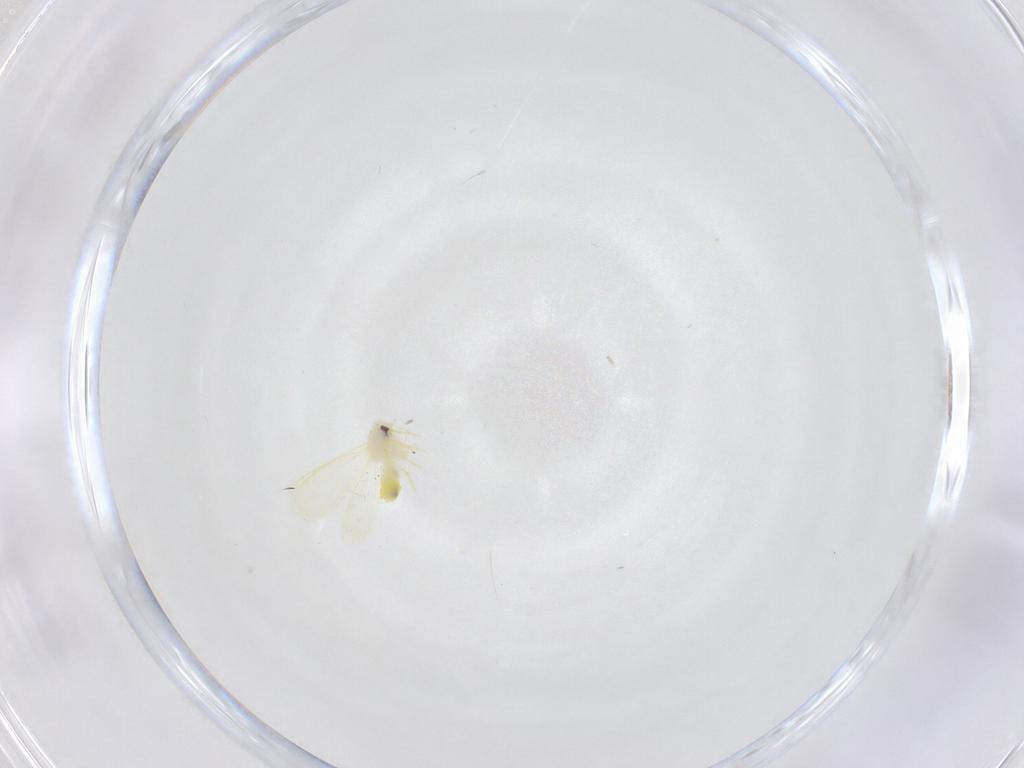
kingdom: Animalia
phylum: Arthropoda
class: Insecta
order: Hemiptera
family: Aleyrodidae
